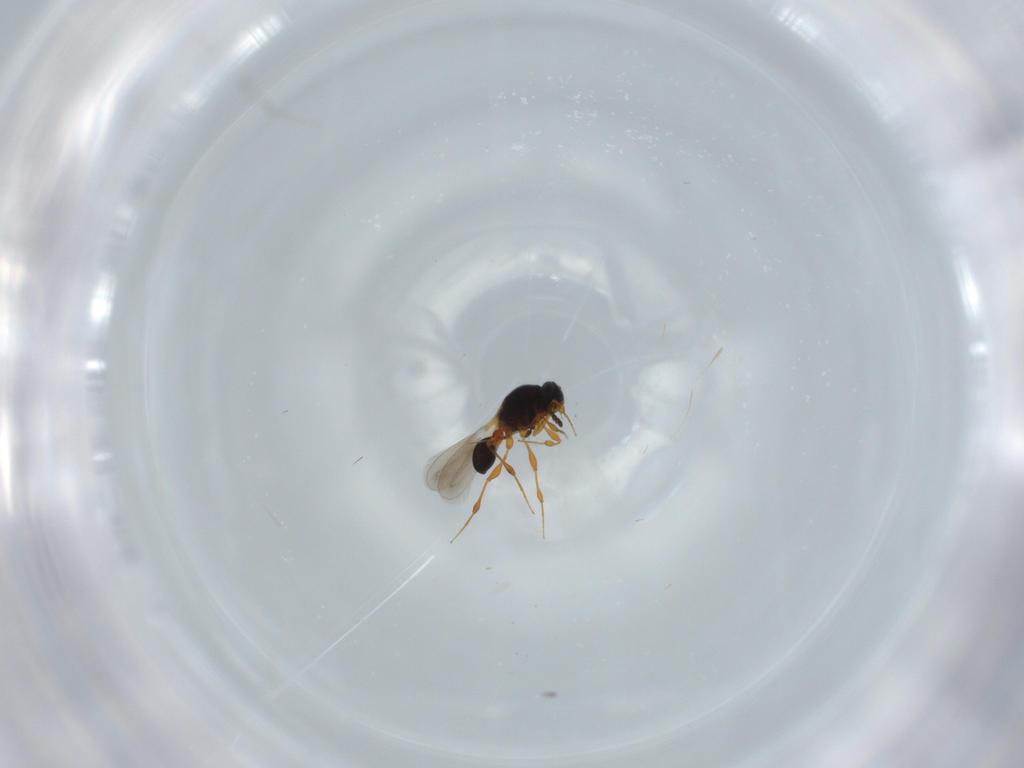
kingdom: Animalia
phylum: Arthropoda
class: Insecta
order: Hymenoptera
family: Platygastridae
